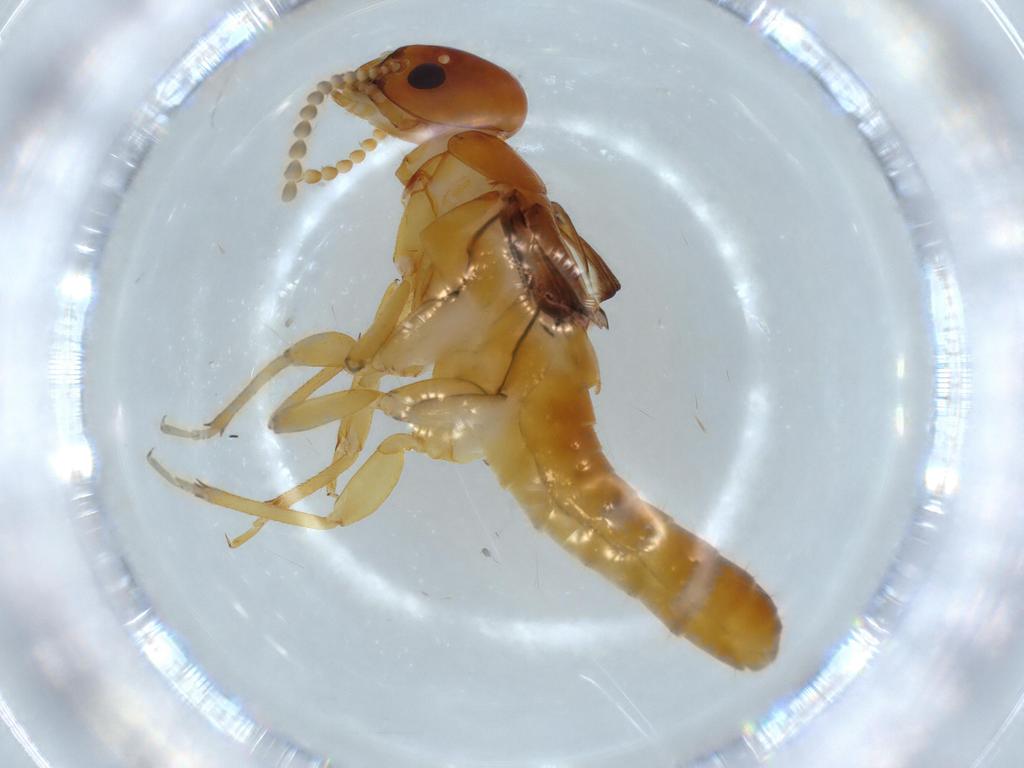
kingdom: Animalia
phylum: Arthropoda
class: Insecta
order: Blattodea
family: Kalotermitidae
